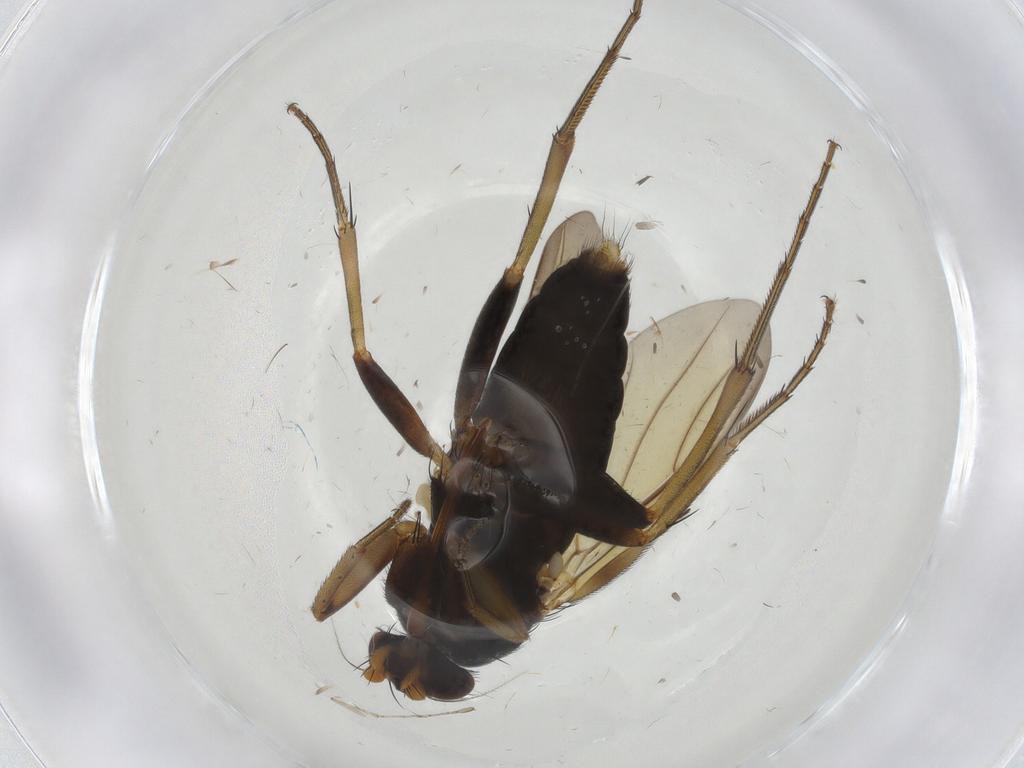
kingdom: Animalia
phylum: Arthropoda
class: Insecta
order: Diptera
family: Phoridae
